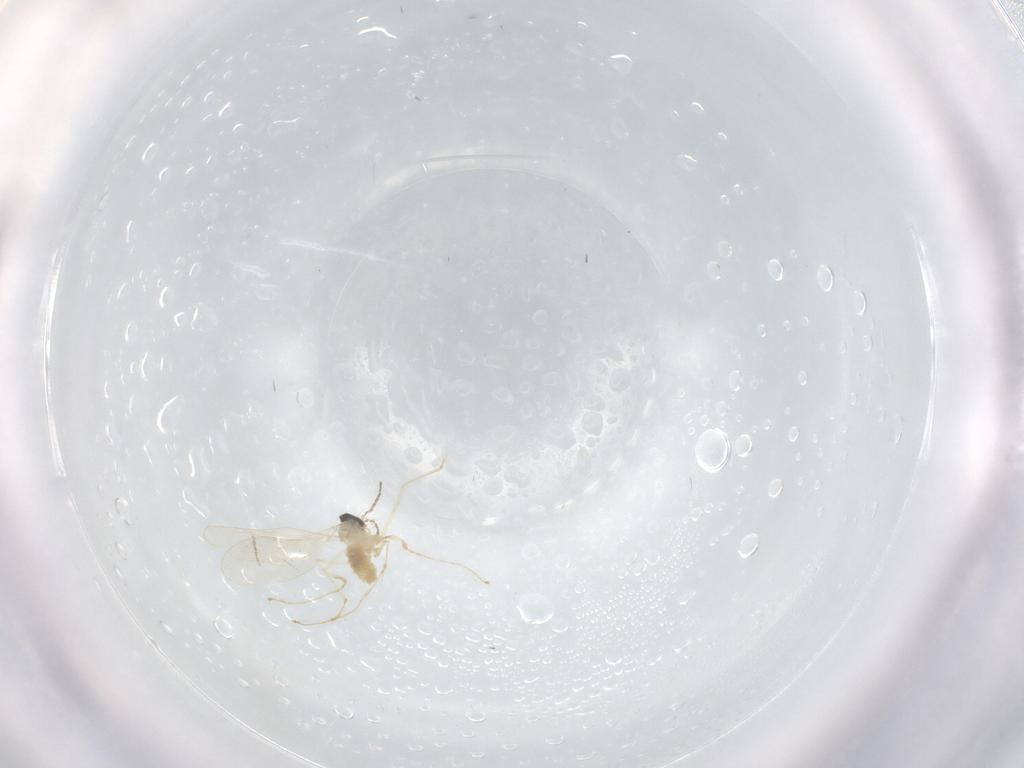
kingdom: Animalia
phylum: Arthropoda
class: Insecta
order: Diptera
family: Cecidomyiidae
